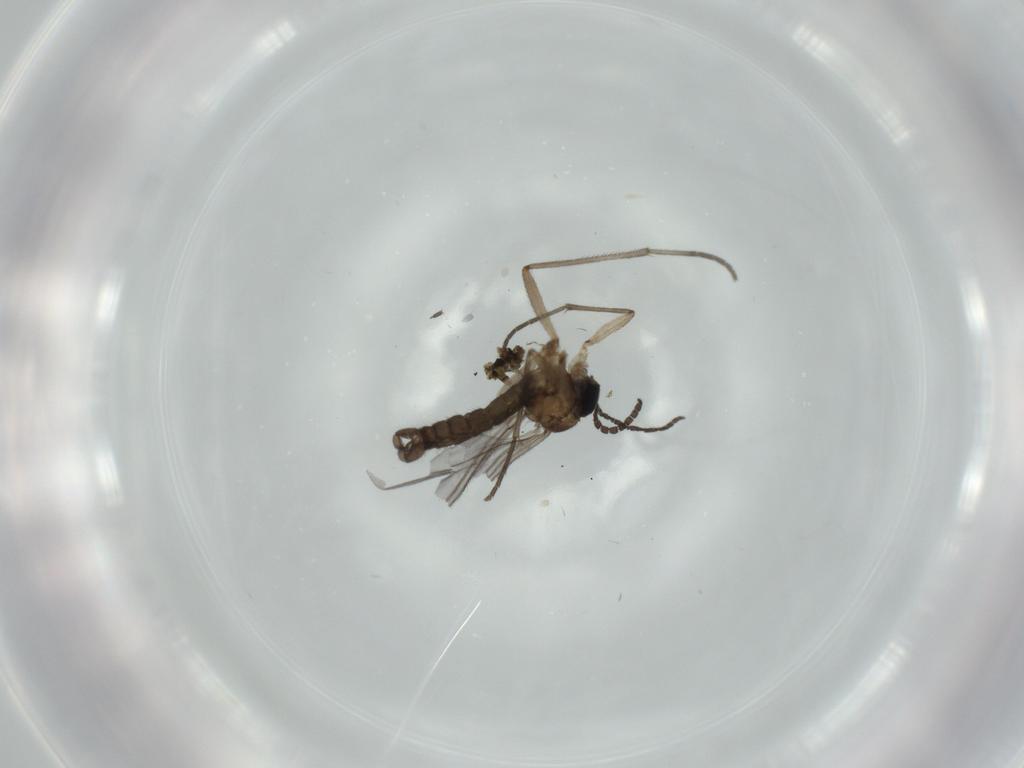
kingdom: Animalia
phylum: Arthropoda
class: Insecta
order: Diptera
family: Sciaridae
